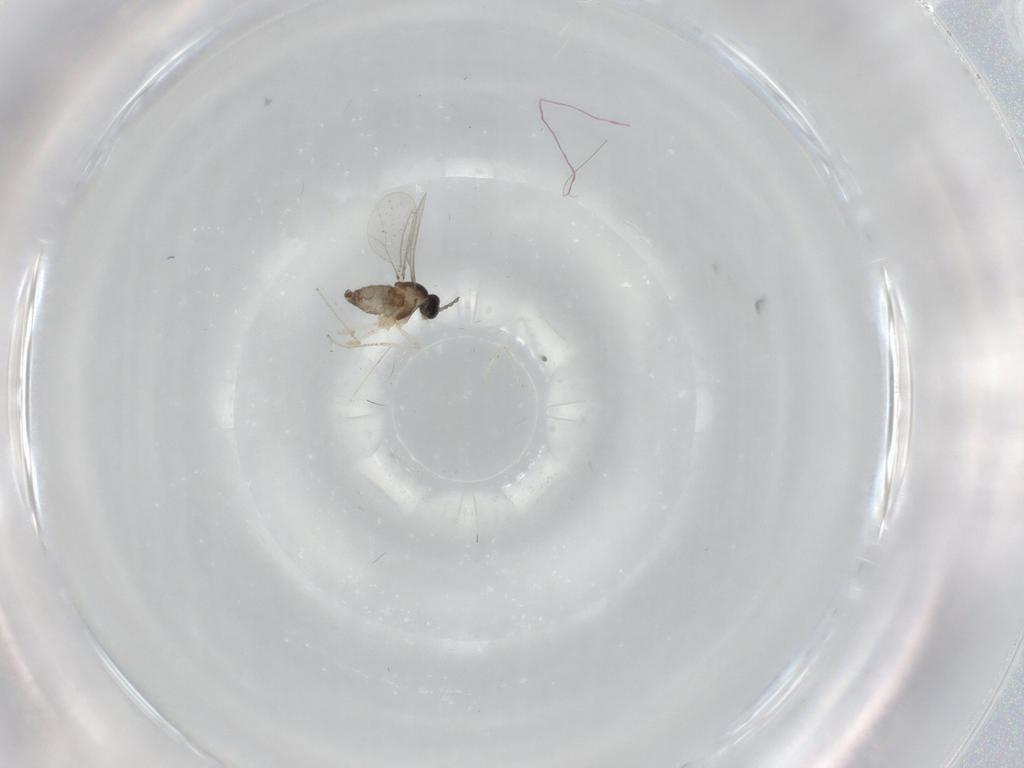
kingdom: Animalia
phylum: Arthropoda
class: Insecta
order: Diptera
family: Cecidomyiidae
